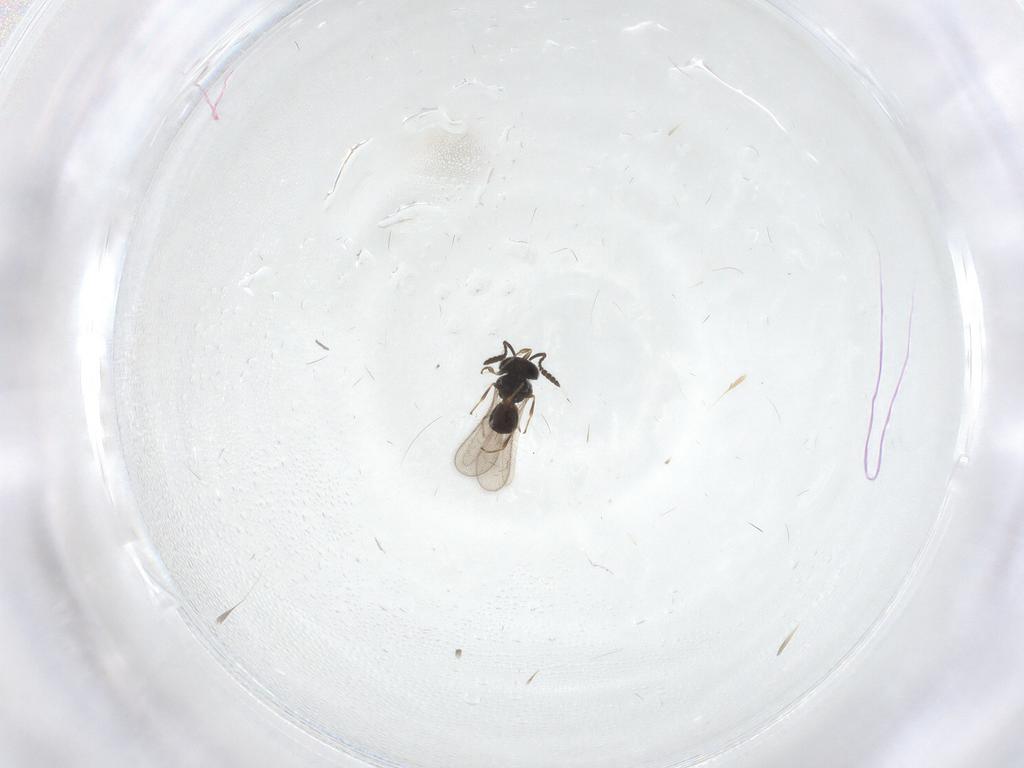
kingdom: Animalia
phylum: Arthropoda
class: Insecta
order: Hymenoptera
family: Scelionidae
